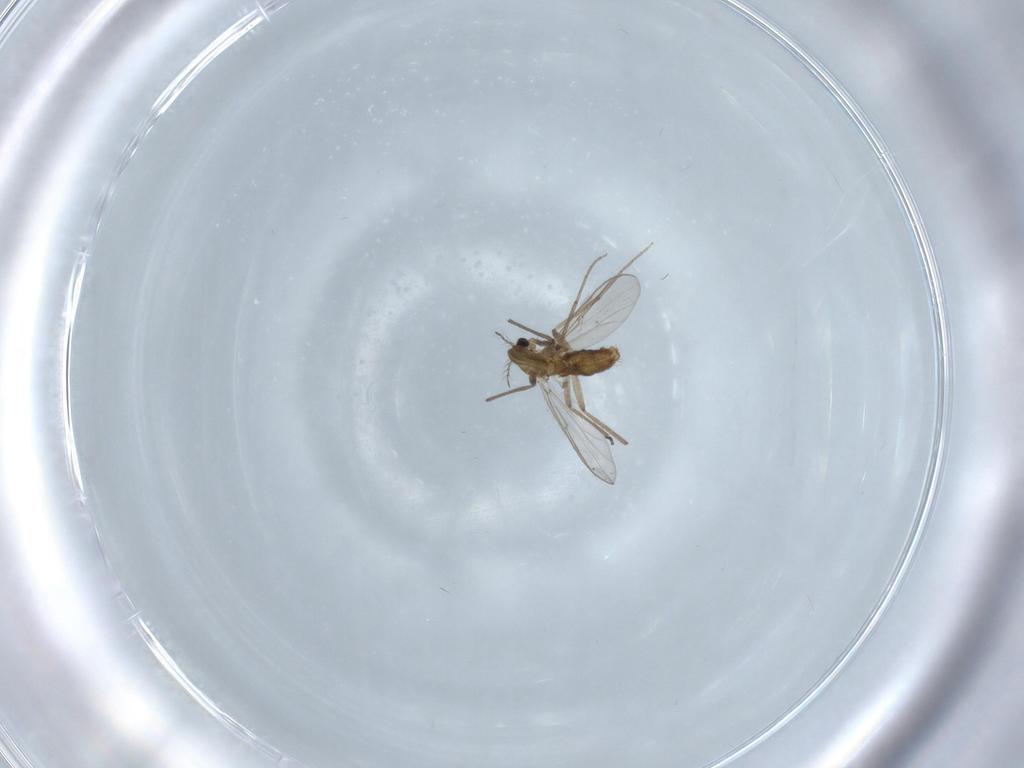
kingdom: Animalia
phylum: Arthropoda
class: Insecta
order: Diptera
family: Chironomidae
